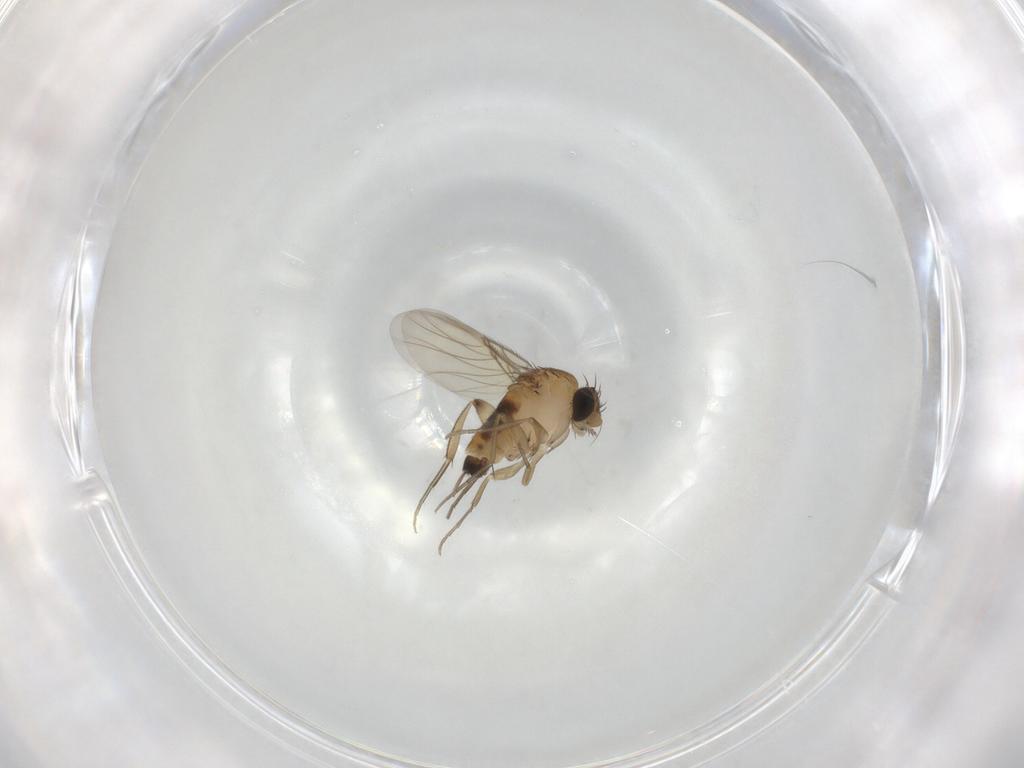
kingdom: Animalia
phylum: Arthropoda
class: Insecta
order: Diptera
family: Phoridae
